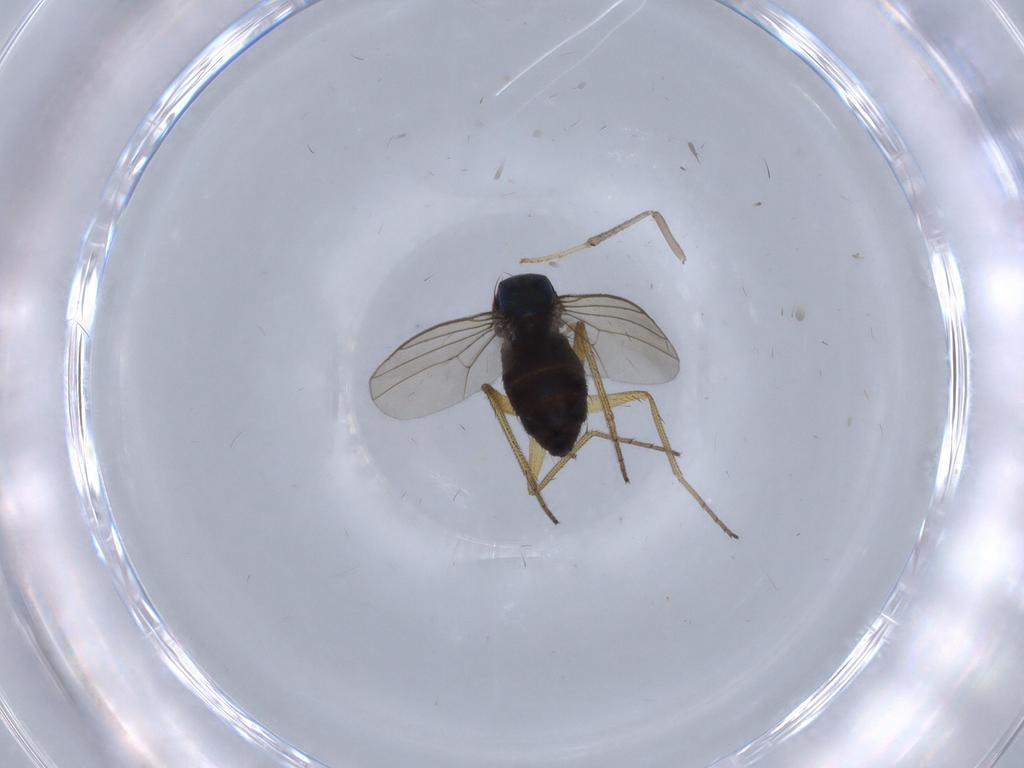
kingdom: Animalia
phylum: Arthropoda
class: Insecta
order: Diptera
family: Dolichopodidae
